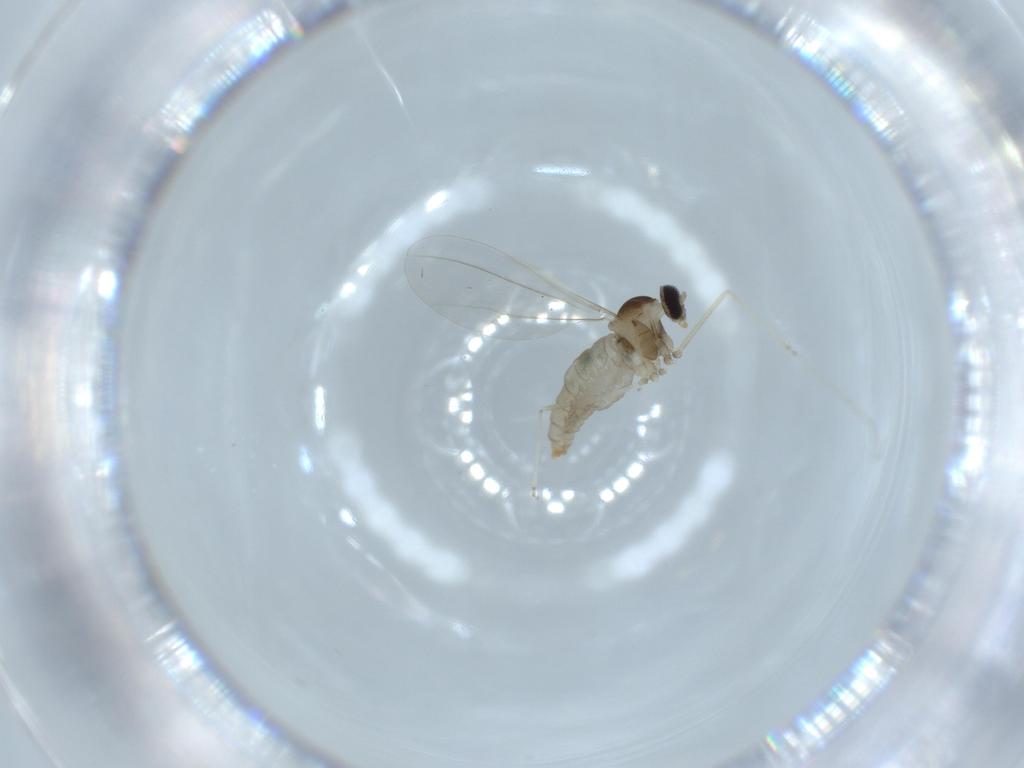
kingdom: Animalia
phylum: Arthropoda
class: Insecta
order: Diptera
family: Cecidomyiidae
